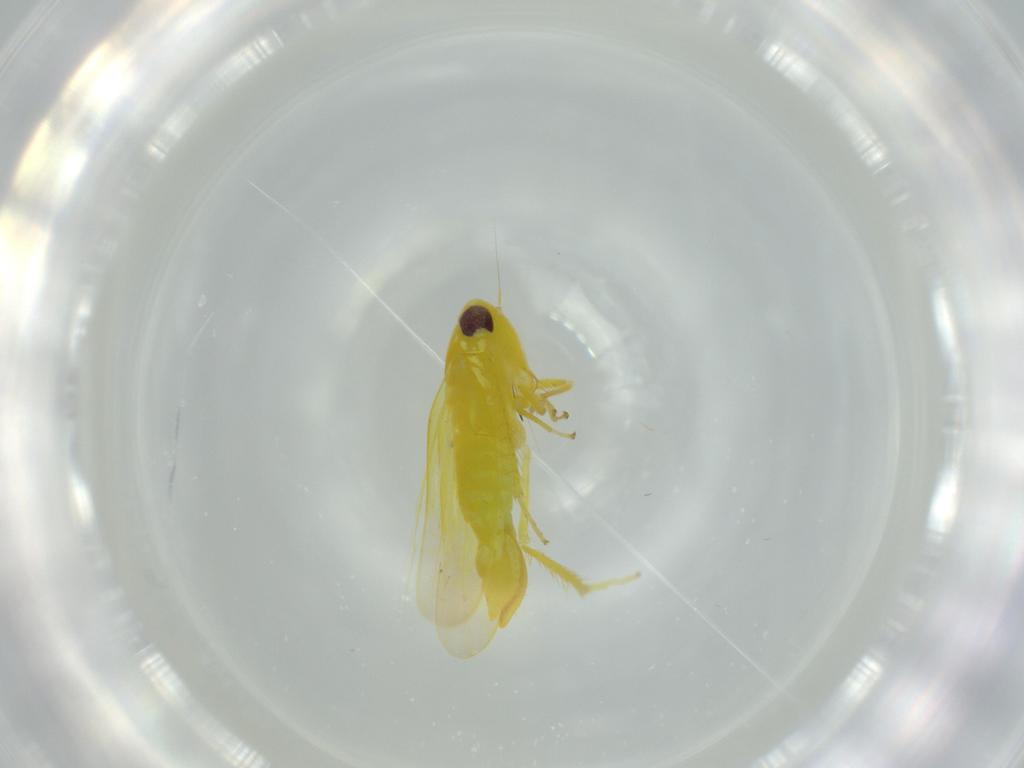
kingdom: Animalia
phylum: Arthropoda
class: Insecta
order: Hemiptera
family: Cicadellidae
